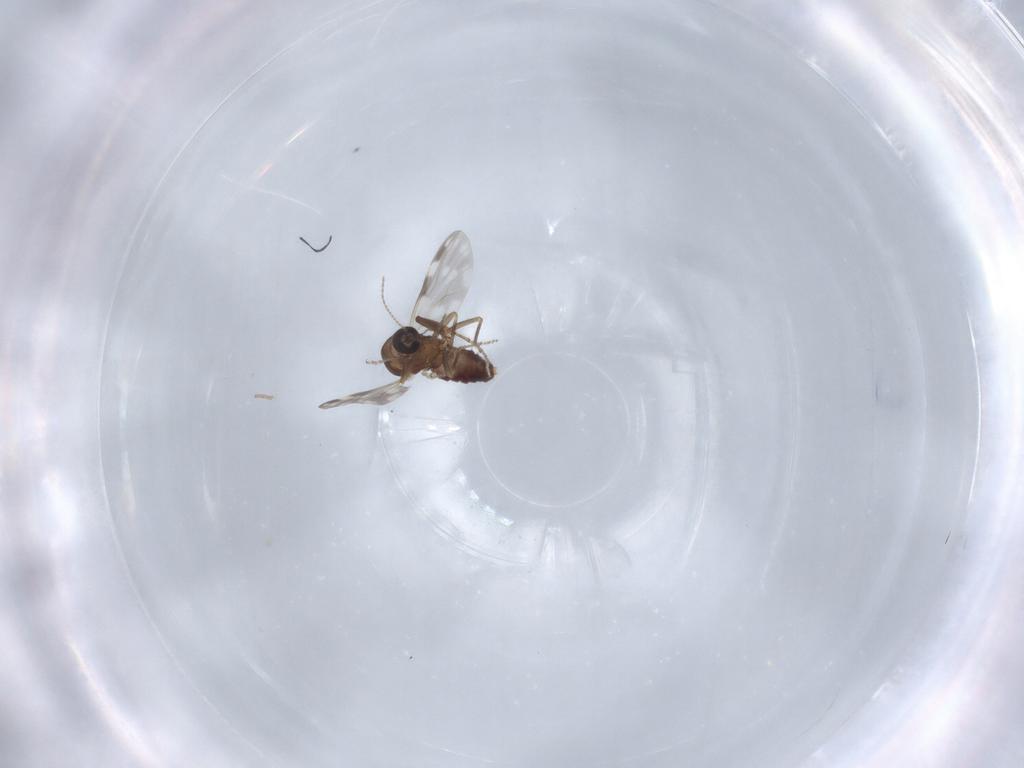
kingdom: Animalia
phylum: Arthropoda
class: Insecta
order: Diptera
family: Ceratopogonidae
